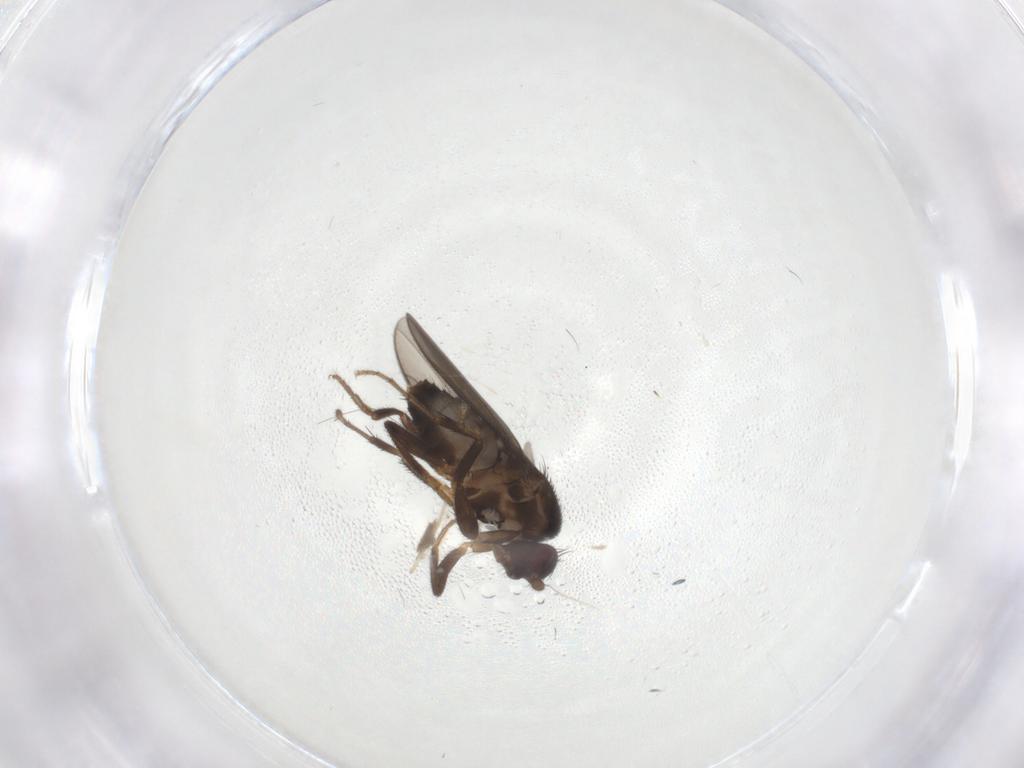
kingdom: Animalia
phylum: Arthropoda
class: Insecta
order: Diptera
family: Sphaeroceridae
